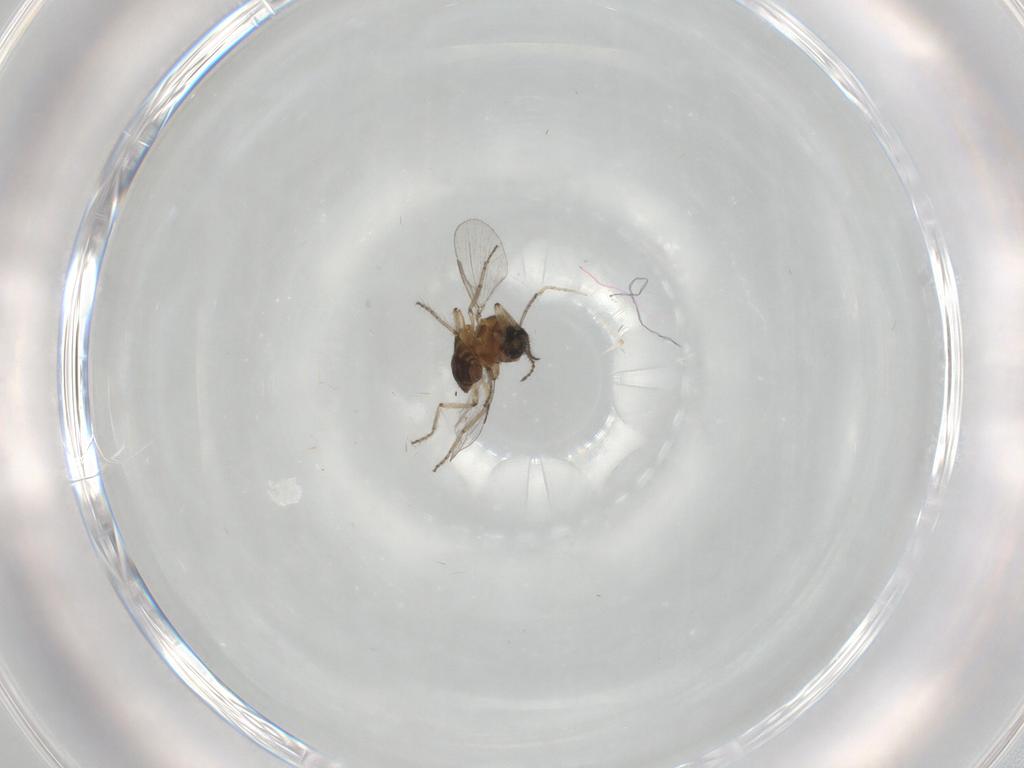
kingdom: Animalia
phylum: Arthropoda
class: Insecta
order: Diptera
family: Ceratopogonidae
